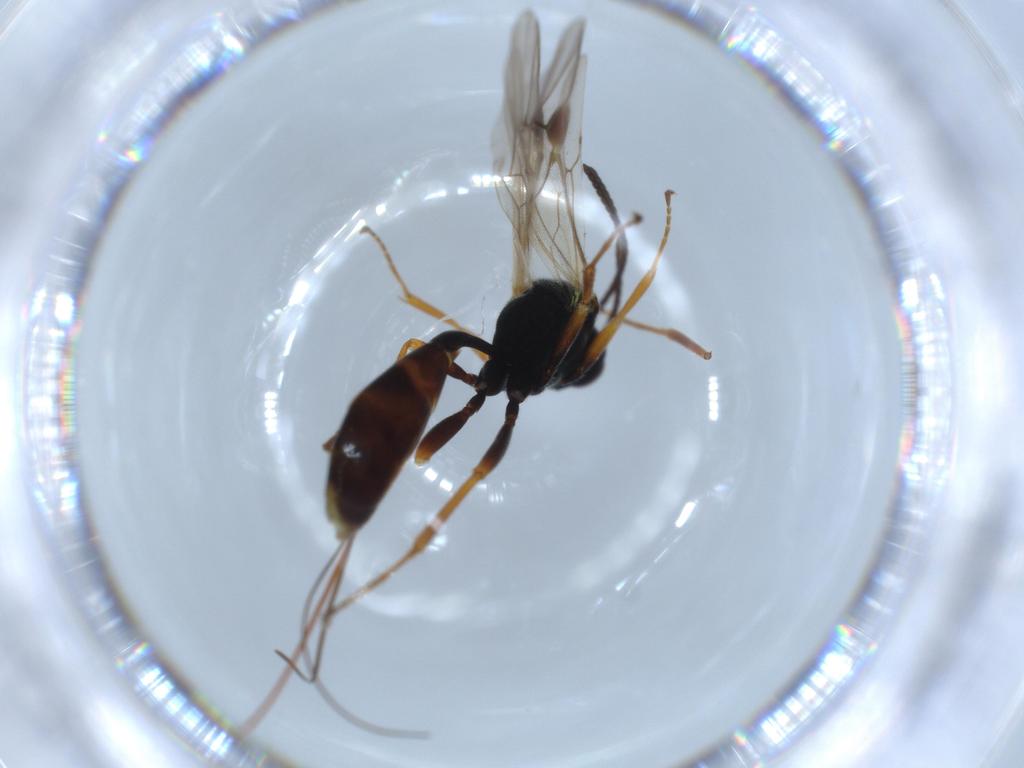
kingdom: Animalia
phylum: Arthropoda
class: Insecta
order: Hymenoptera
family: Ichneumonidae
